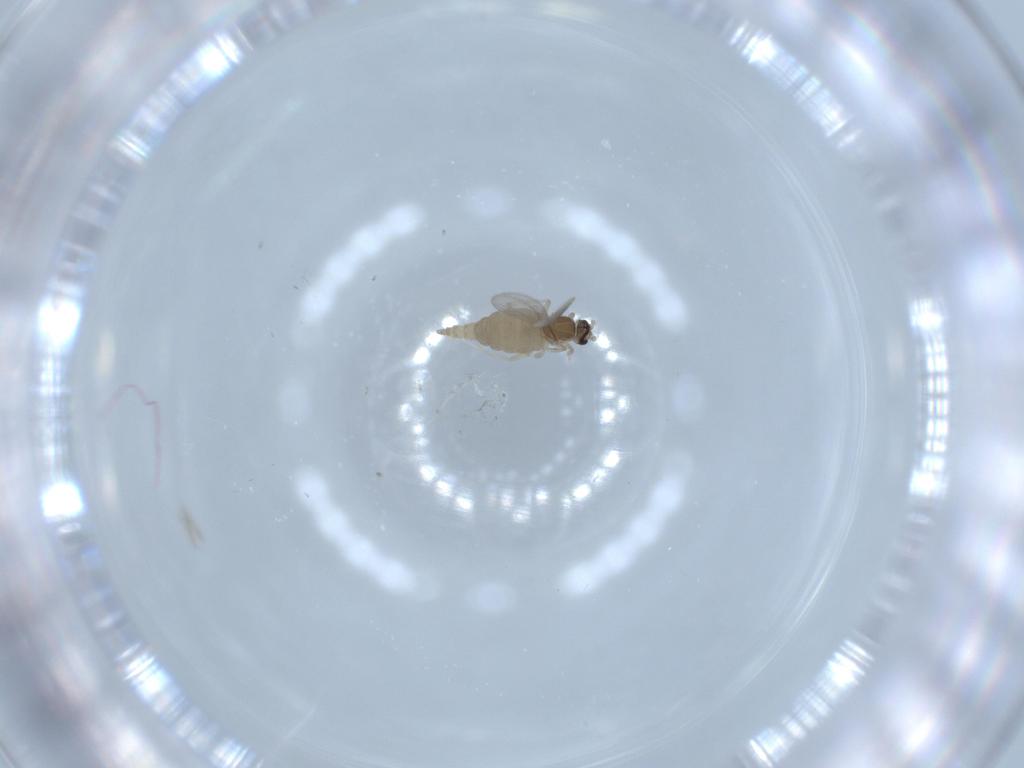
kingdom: Animalia
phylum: Arthropoda
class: Insecta
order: Diptera
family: Cecidomyiidae
